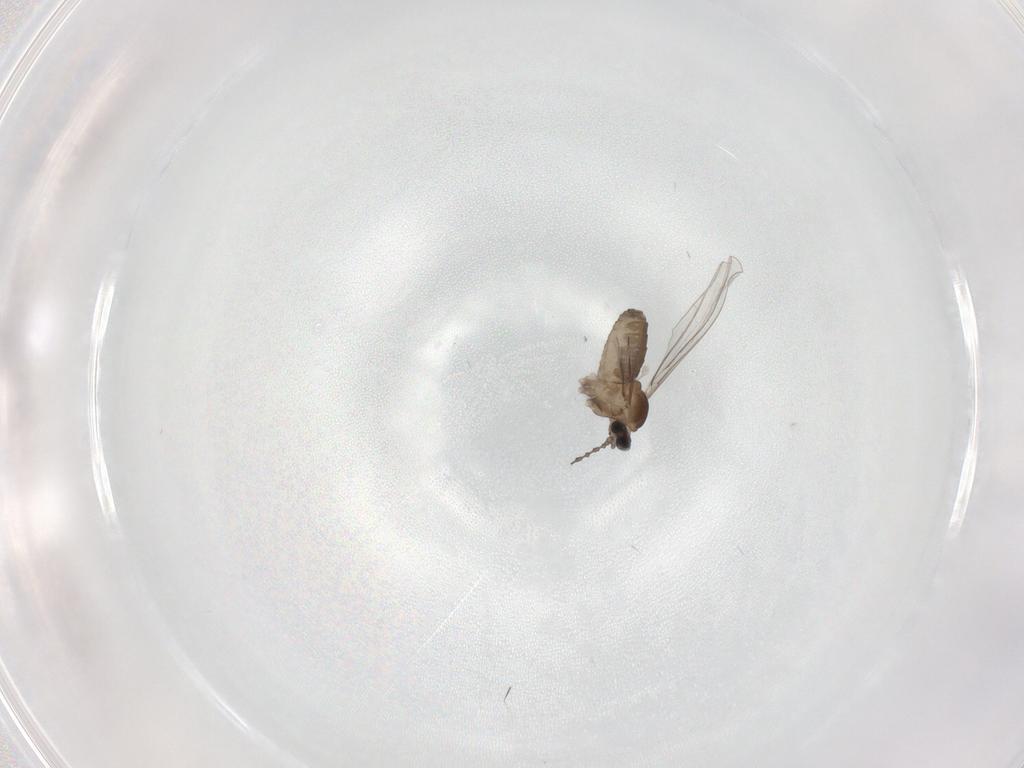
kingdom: Animalia
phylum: Arthropoda
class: Insecta
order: Diptera
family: Cecidomyiidae
